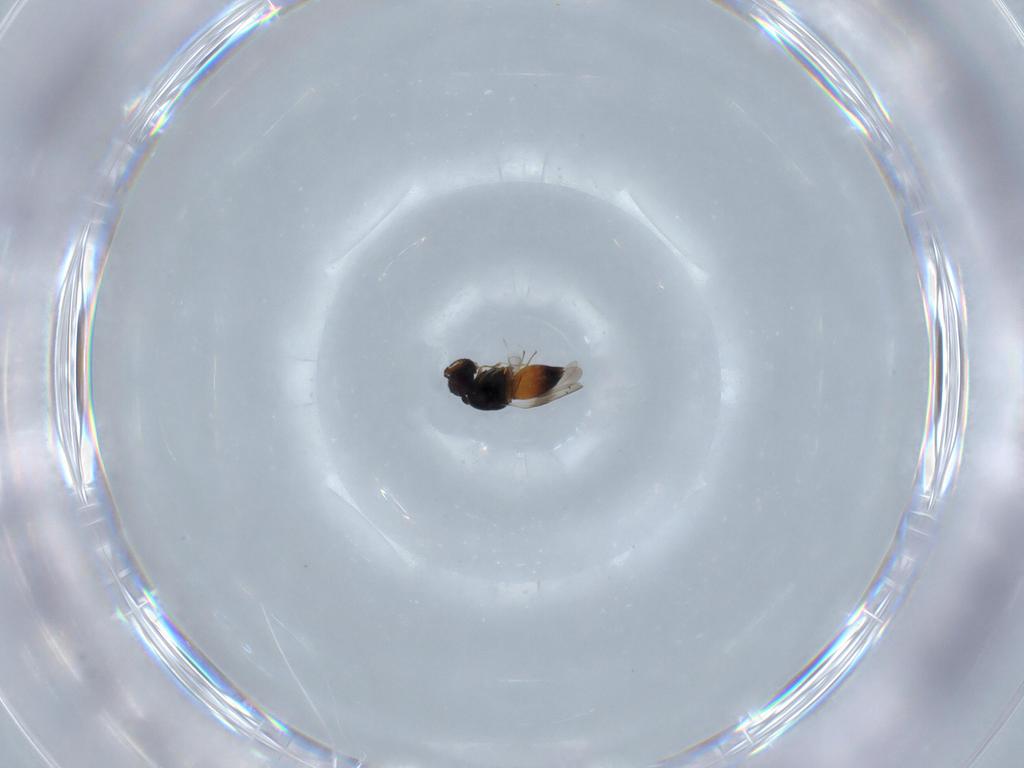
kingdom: Animalia
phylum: Arthropoda
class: Insecta
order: Hymenoptera
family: Ceraphronidae
